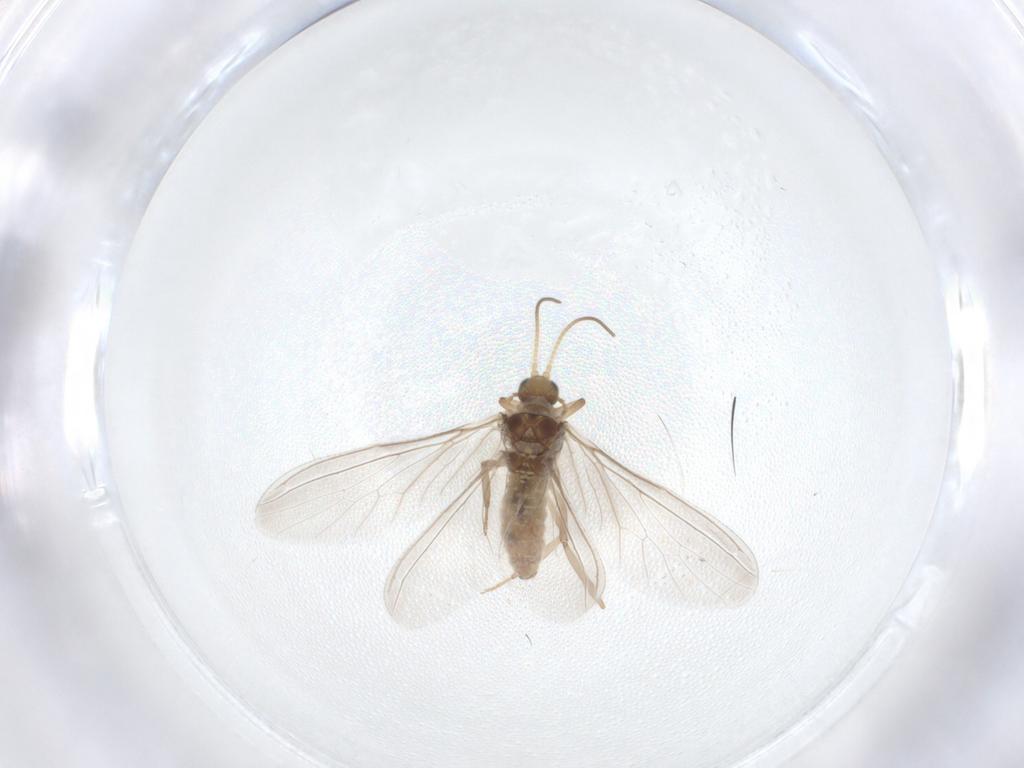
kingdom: Animalia
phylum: Arthropoda
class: Insecta
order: Neuroptera
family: Coniopterygidae
